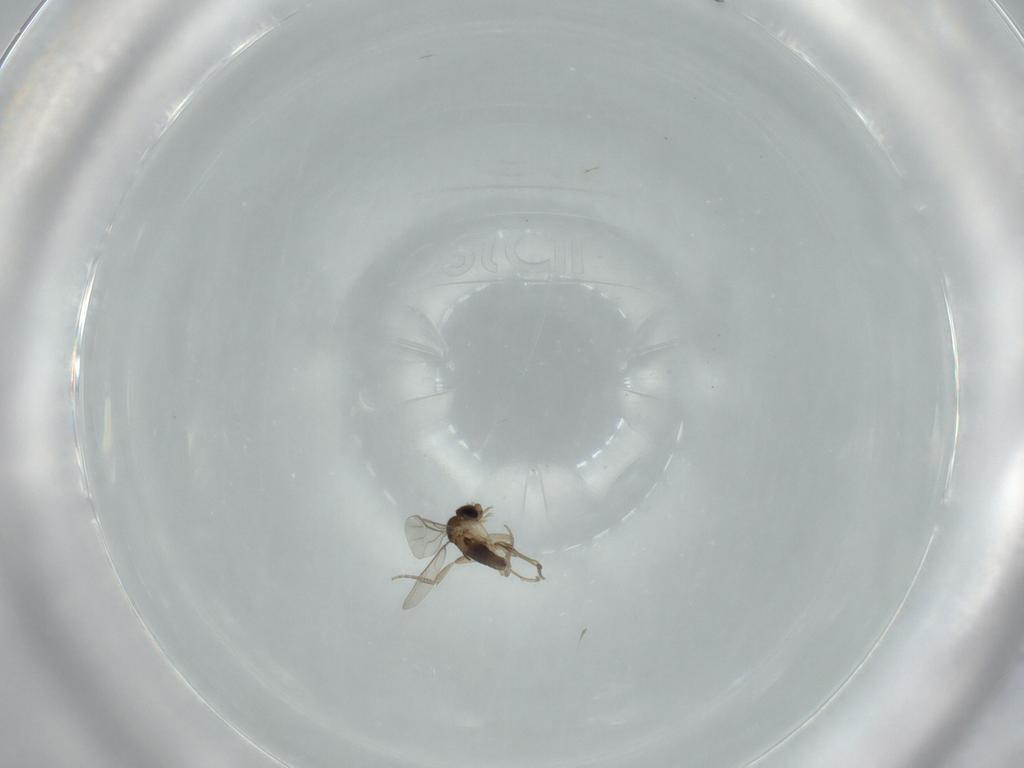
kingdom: Animalia
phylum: Arthropoda
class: Insecta
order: Diptera
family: Phoridae
